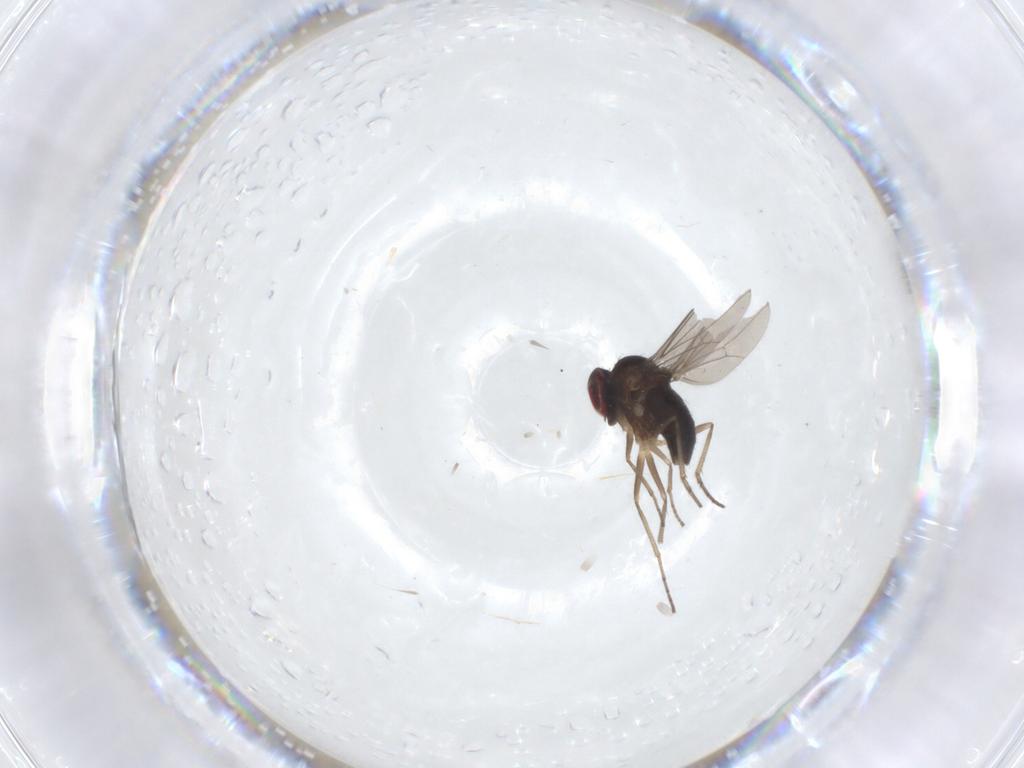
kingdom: Animalia
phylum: Arthropoda
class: Insecta
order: Diptera
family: Dolichopodidae
